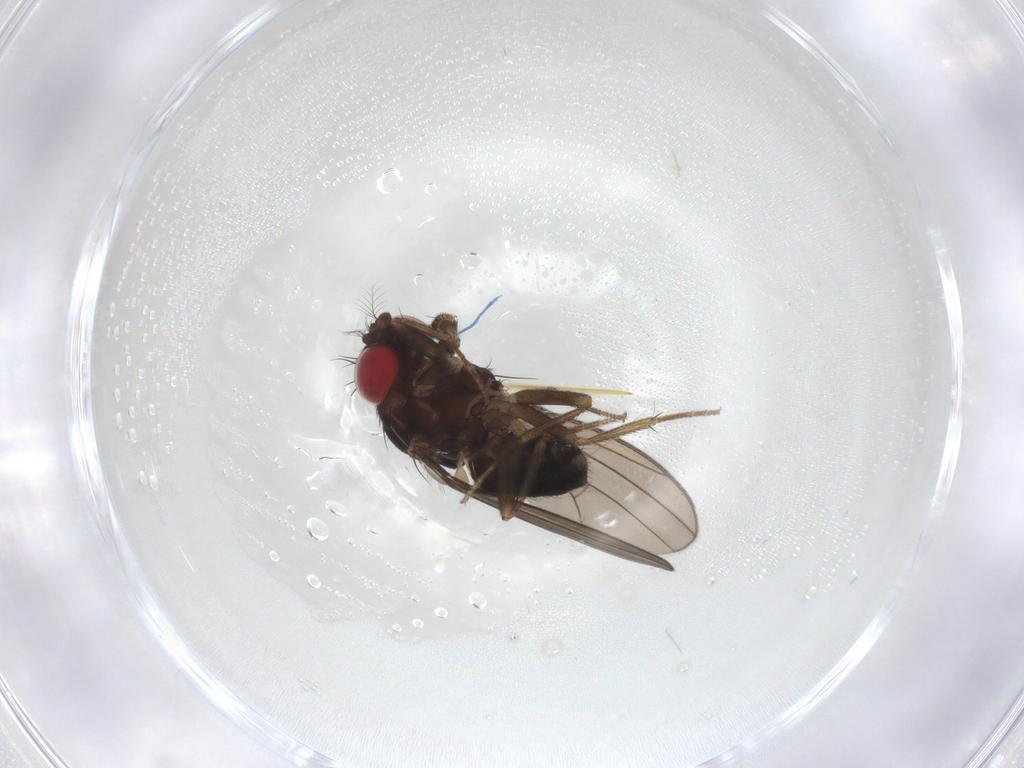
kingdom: Animalia
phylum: Arthropoda
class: Insecta
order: Diptera
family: Drosophilidae
